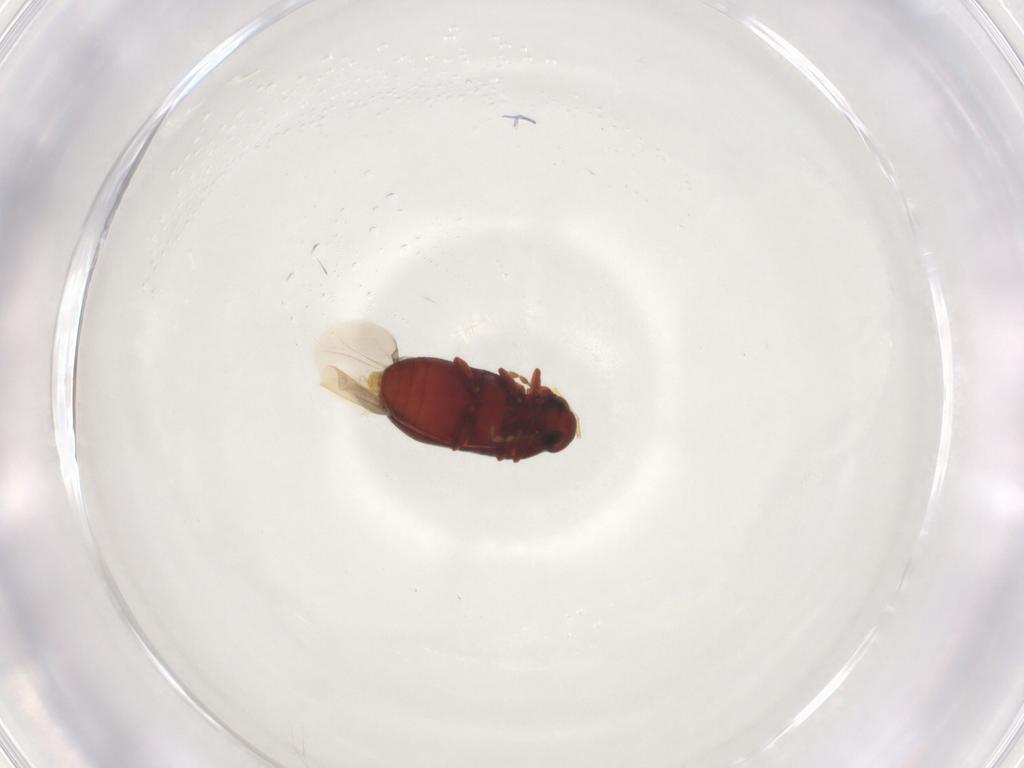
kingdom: Animalia
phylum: Arthropoda
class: Insecta
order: Coleoptera
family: Ptinidae
